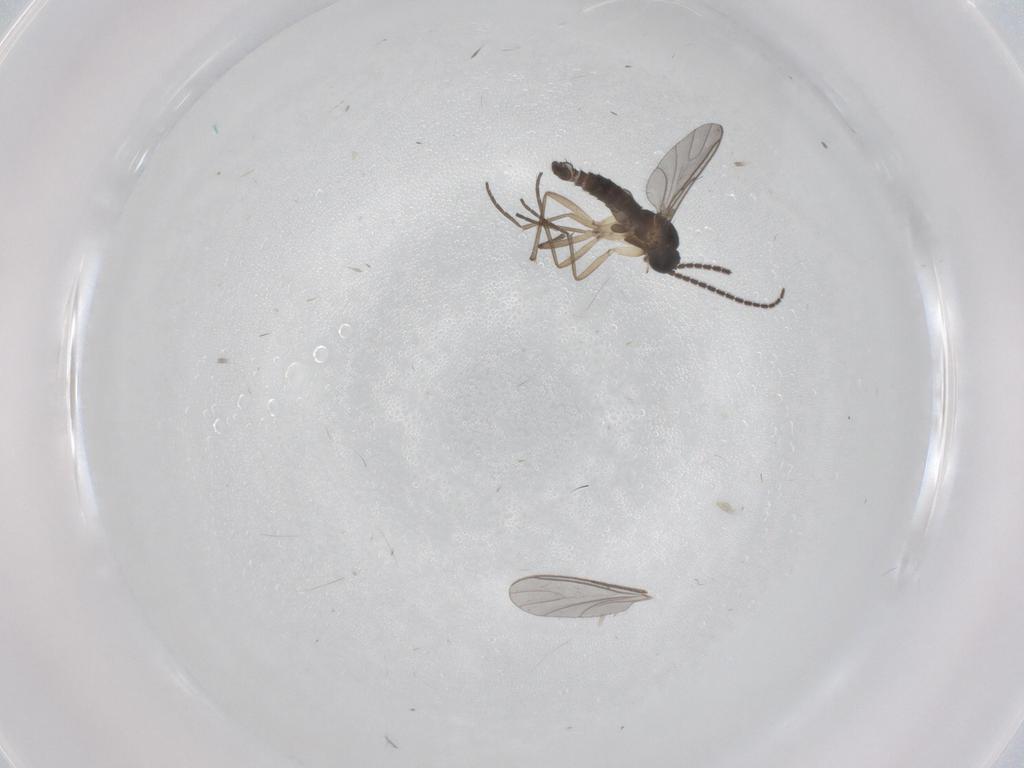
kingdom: Animalia
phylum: Arthropoda
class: Insecta
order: Diptera
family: Sciaridae
